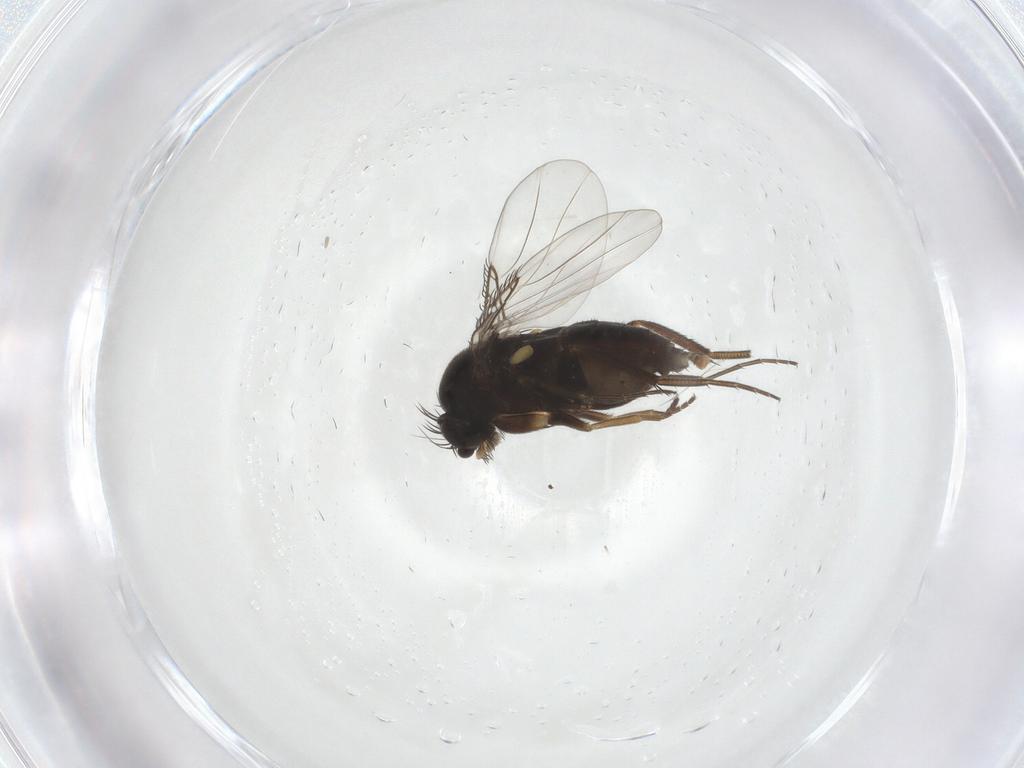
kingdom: Animalia
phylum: Arthropoda
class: Insecta
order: Diptera
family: Phoridae
